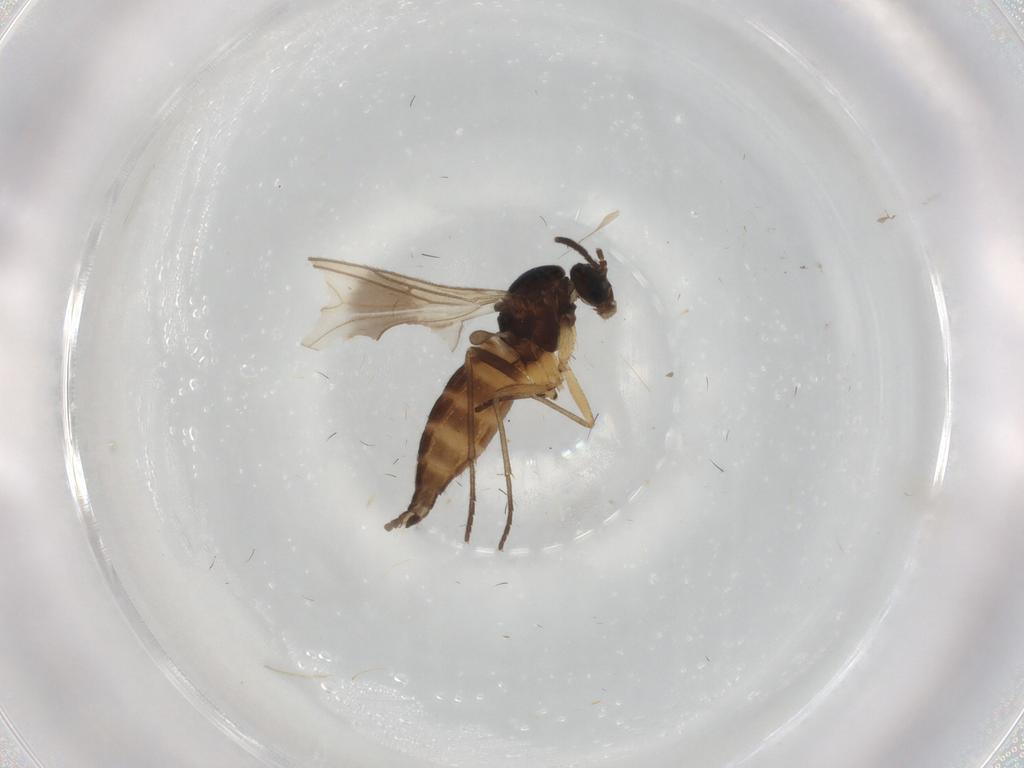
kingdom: Animalia
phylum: Arthropoda
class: Insecta
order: Diptera
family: Sciaridae
